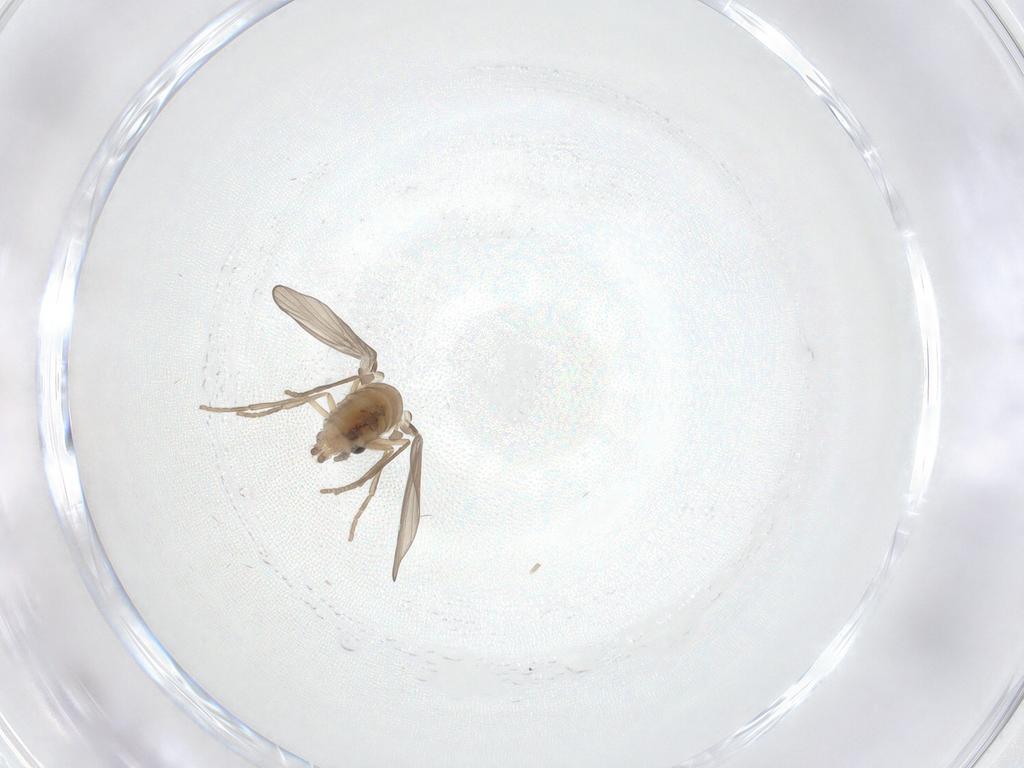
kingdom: Animalia
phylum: Arthropoda
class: Insecta
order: Diptera
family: Psychodidae
